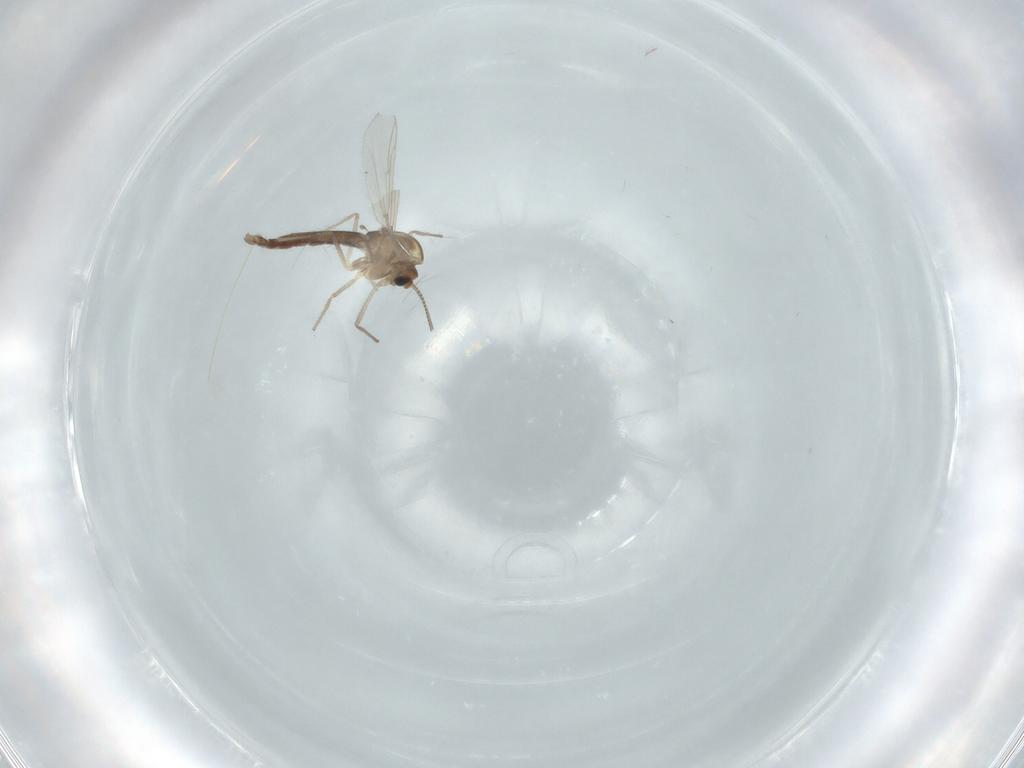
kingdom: Animalia
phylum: Arthropoda
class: Insecta
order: Diptera
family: Chironomidae
